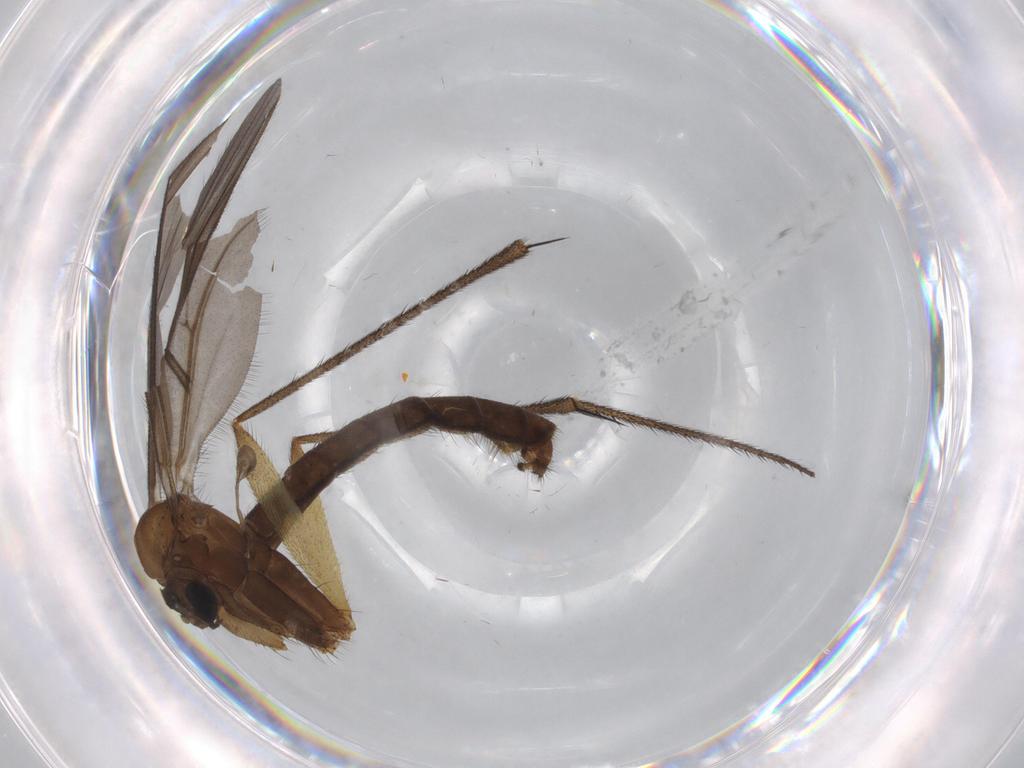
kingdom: Animalia
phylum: Arthropoda
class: Insecta
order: Diptera
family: Ditomyiidae
